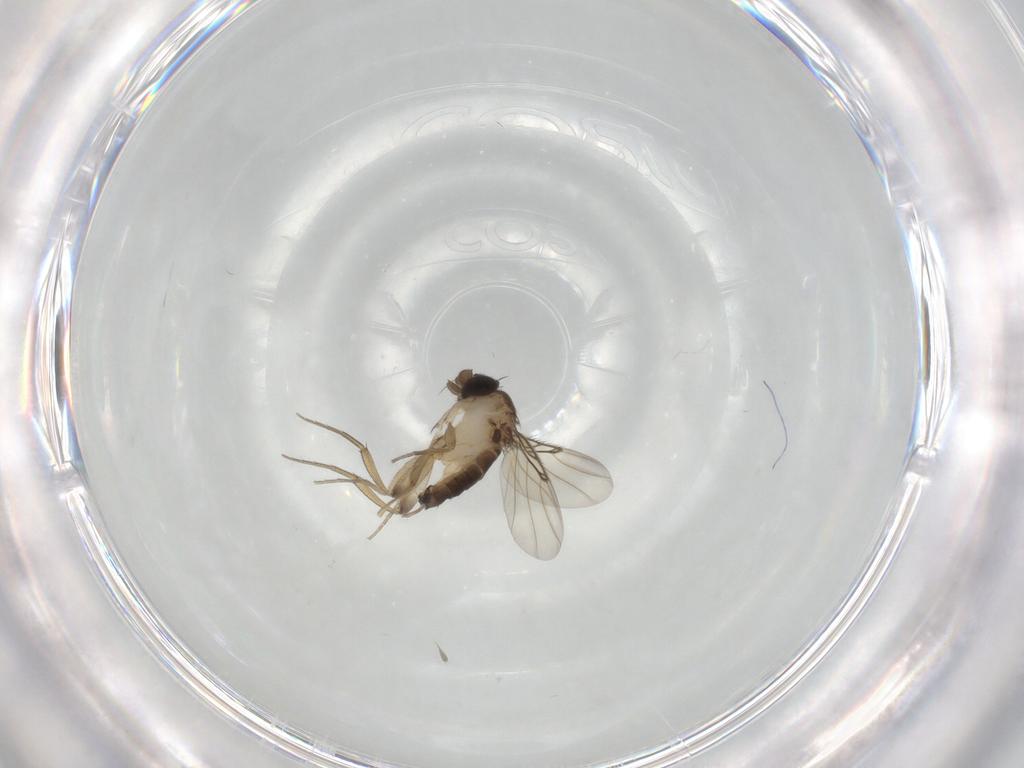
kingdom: Animalia
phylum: Arthropoda
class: Insecta
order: Diptera
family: Phoridae
